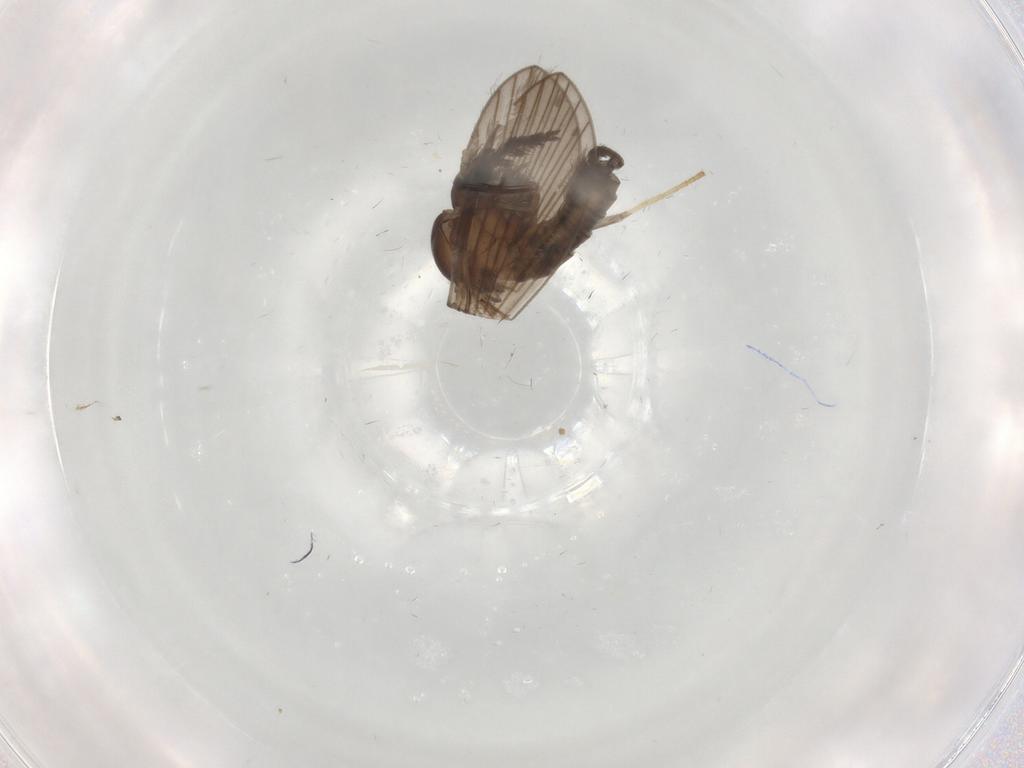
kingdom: Animalia
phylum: Arthropoda
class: Insecta
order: Diptera
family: Psychodidae
